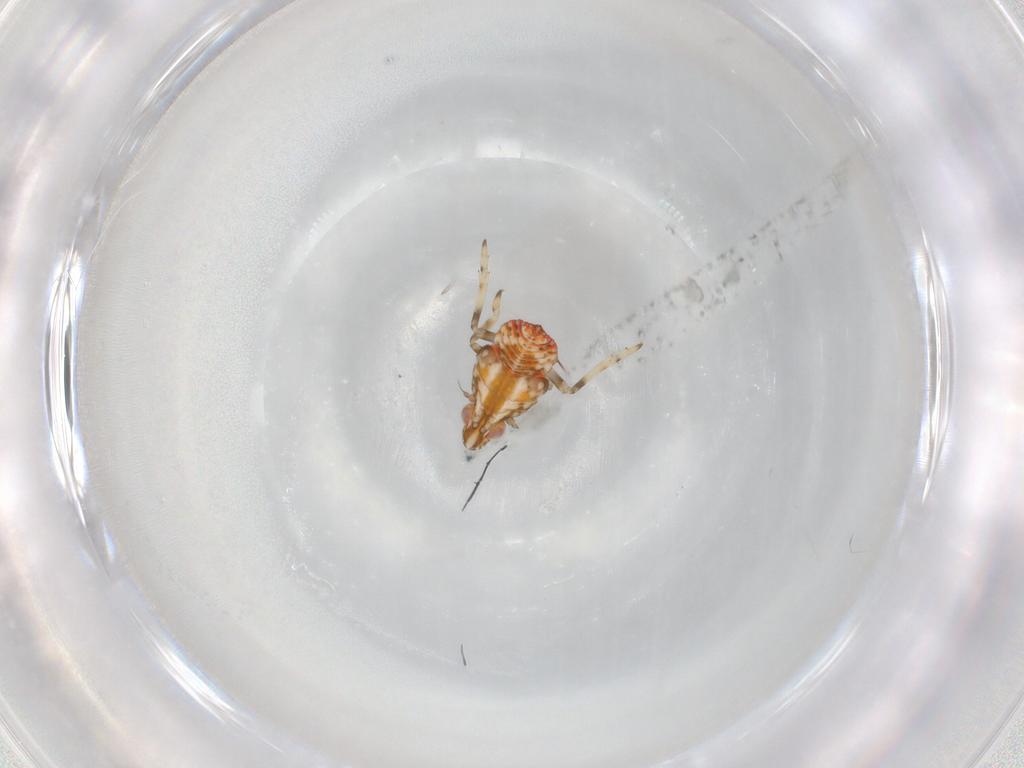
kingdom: Animalia
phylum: Arthropoda
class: Insecta
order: Hemiptera
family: Tropiduchidae
